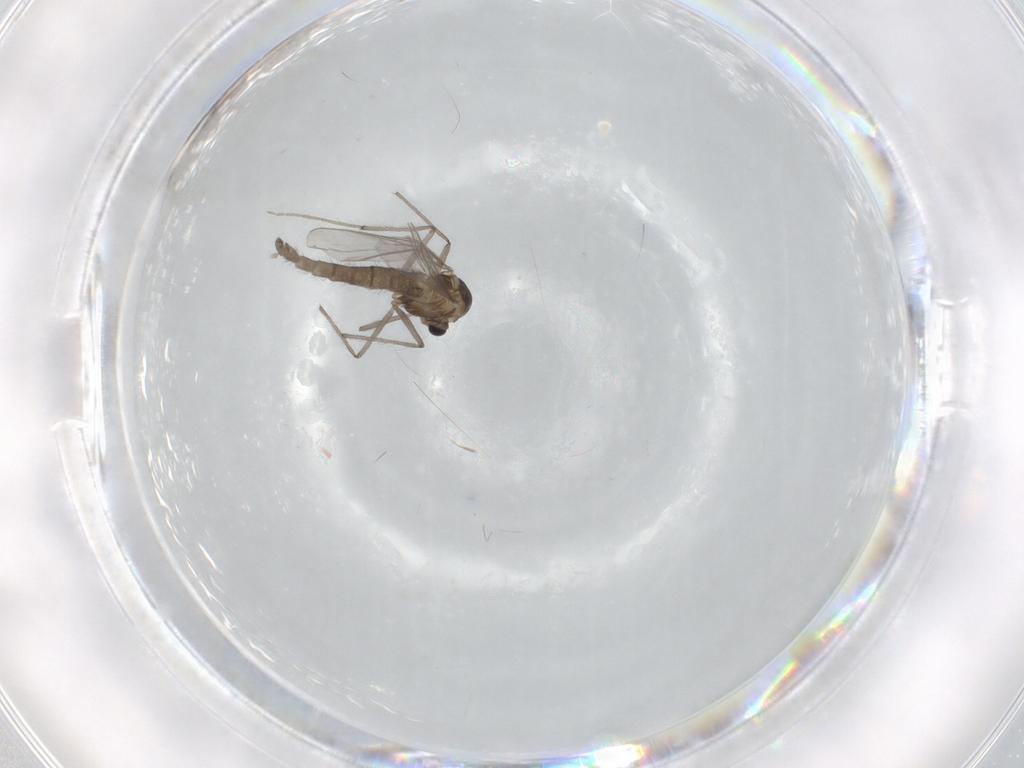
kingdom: Animalia
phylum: Arthropoda
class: Insecta
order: Diptera
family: Chironomidae
